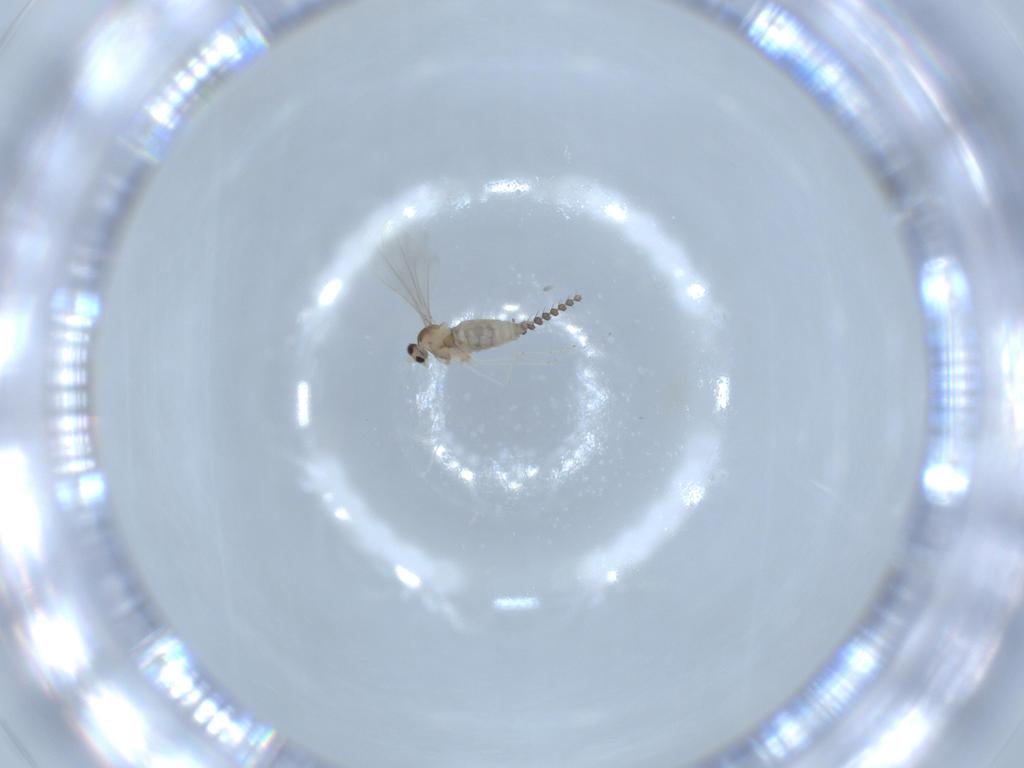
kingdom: Animalia
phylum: Arthropoda
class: Insecta
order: Diptera
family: Cecidomyiidae
